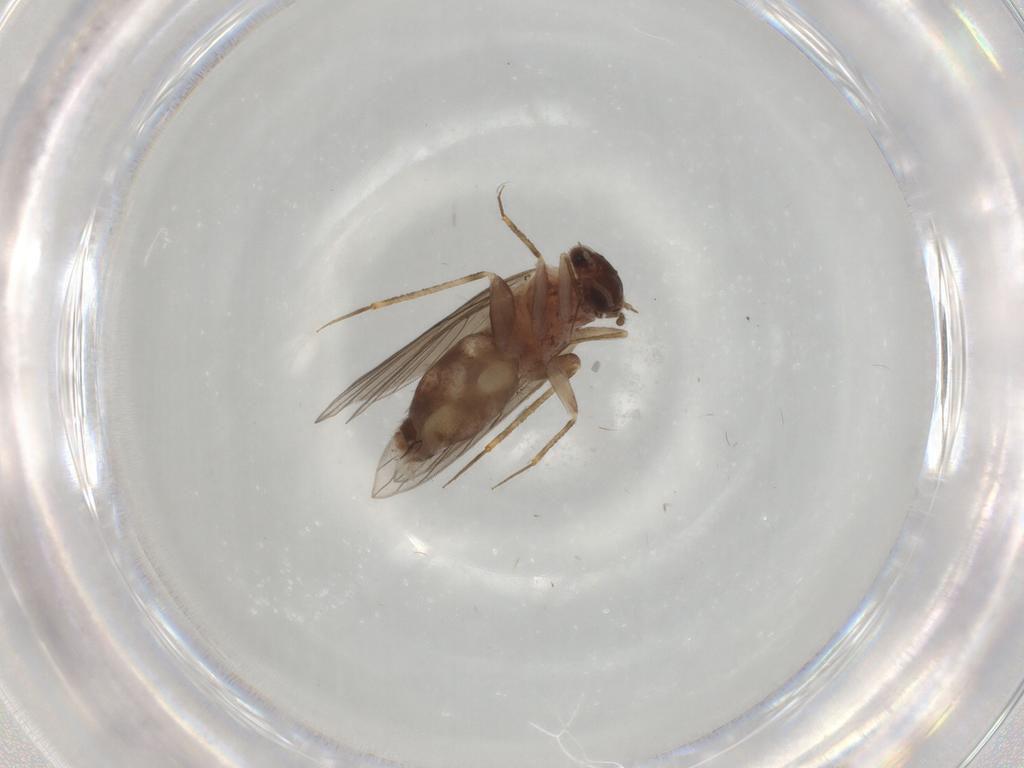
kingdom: Animalia
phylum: Arthropoda
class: Insecta
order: Psocodea
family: Lepidopsocidae
